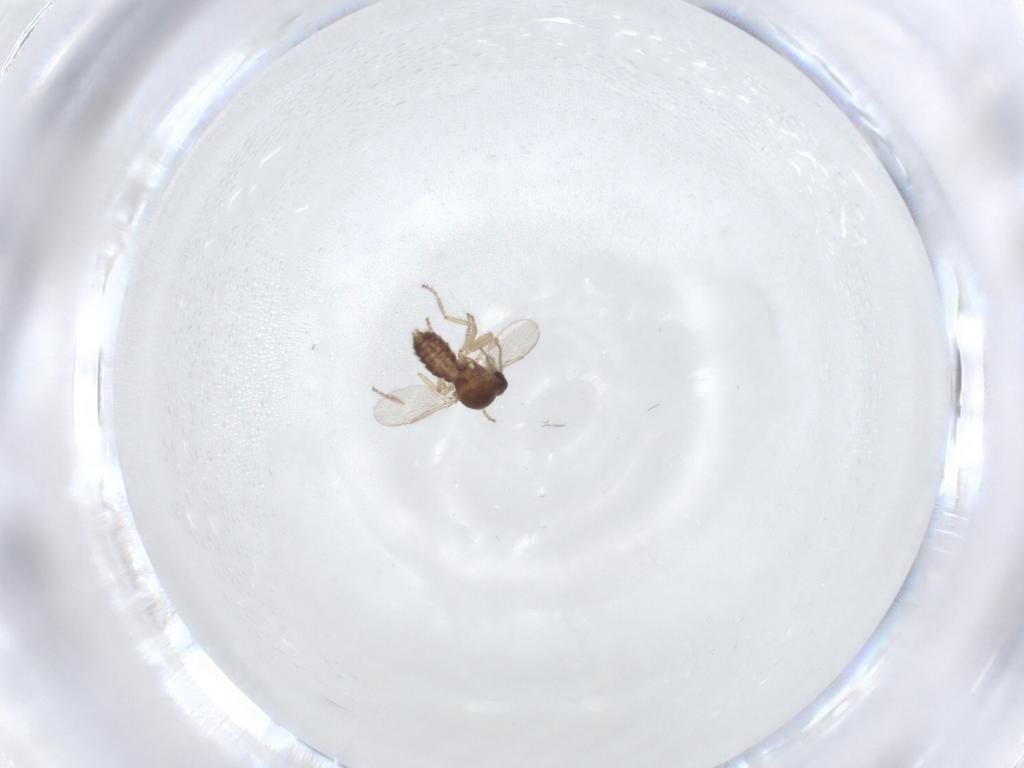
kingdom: Animalia
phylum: Arthropoda
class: Insecta
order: Diptera
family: Ceratopogonidae
